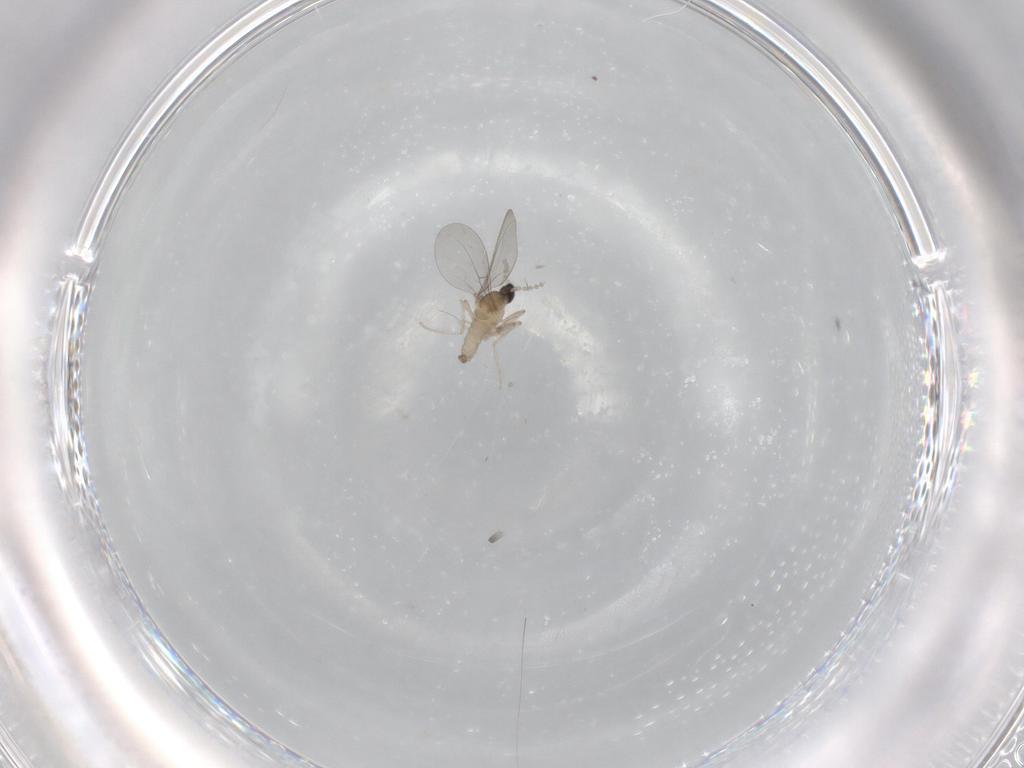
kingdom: Animalia
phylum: Arthropoda
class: Insecta
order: Diptera
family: Cecidomyiidae
